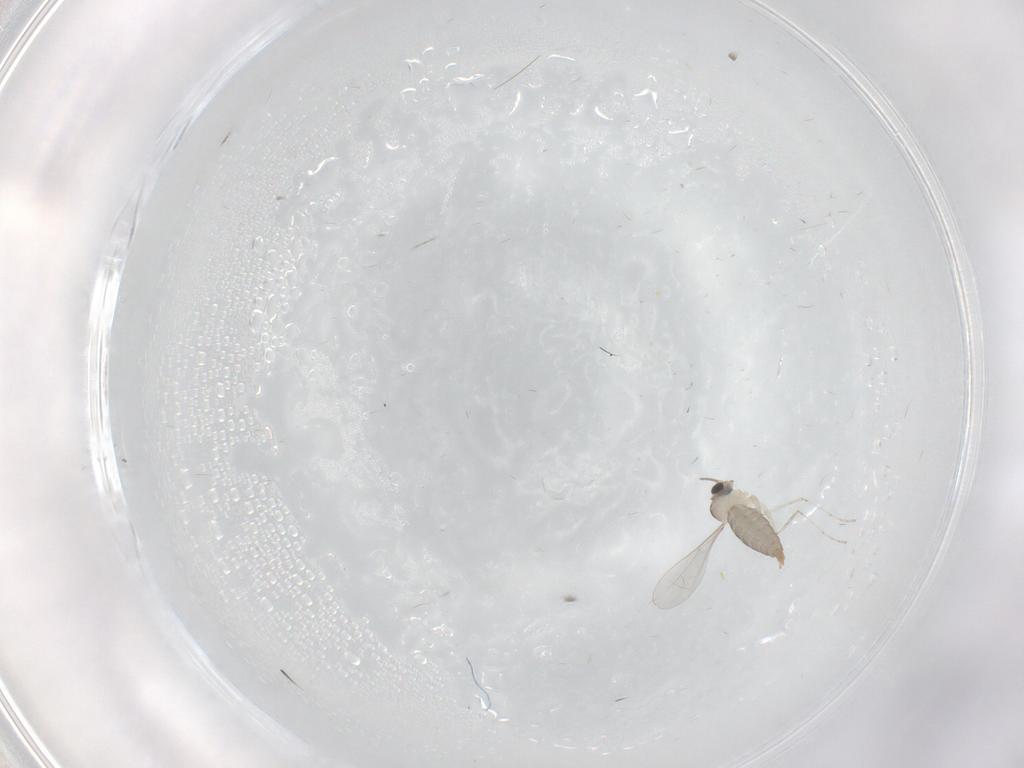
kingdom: Animalia
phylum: Arthropoda
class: Insecta
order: Diptera
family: Cecidomyiidae
